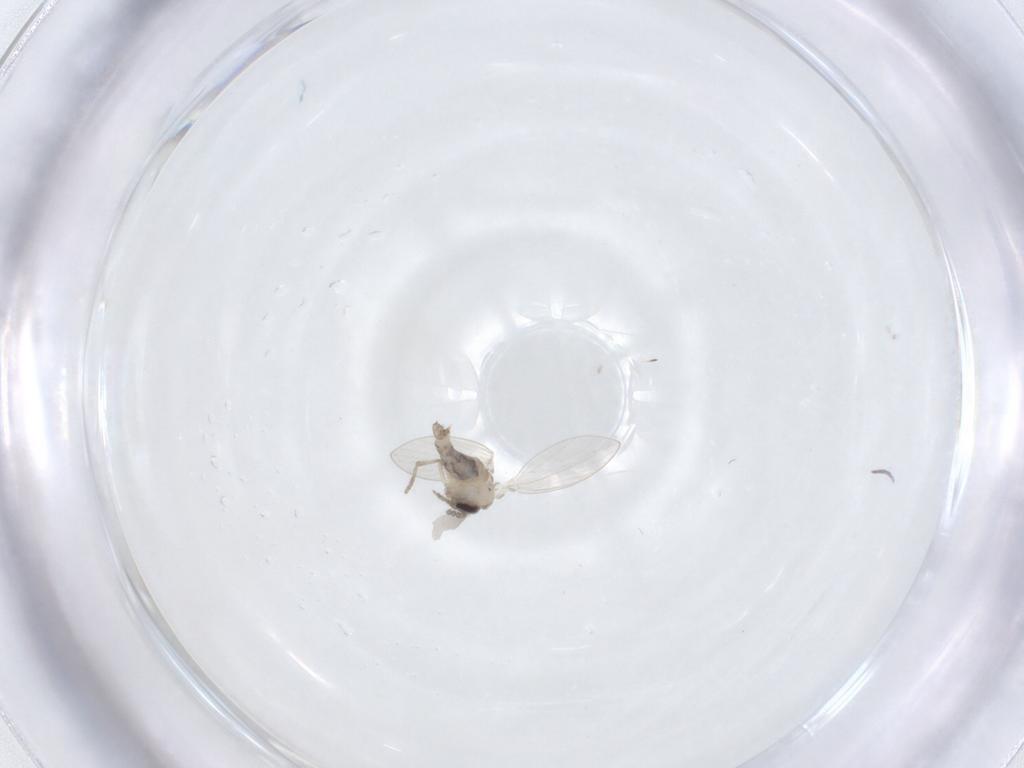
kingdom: Animalia
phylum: Arthropoda
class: Insecta
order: Diptera
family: Psychodidae
